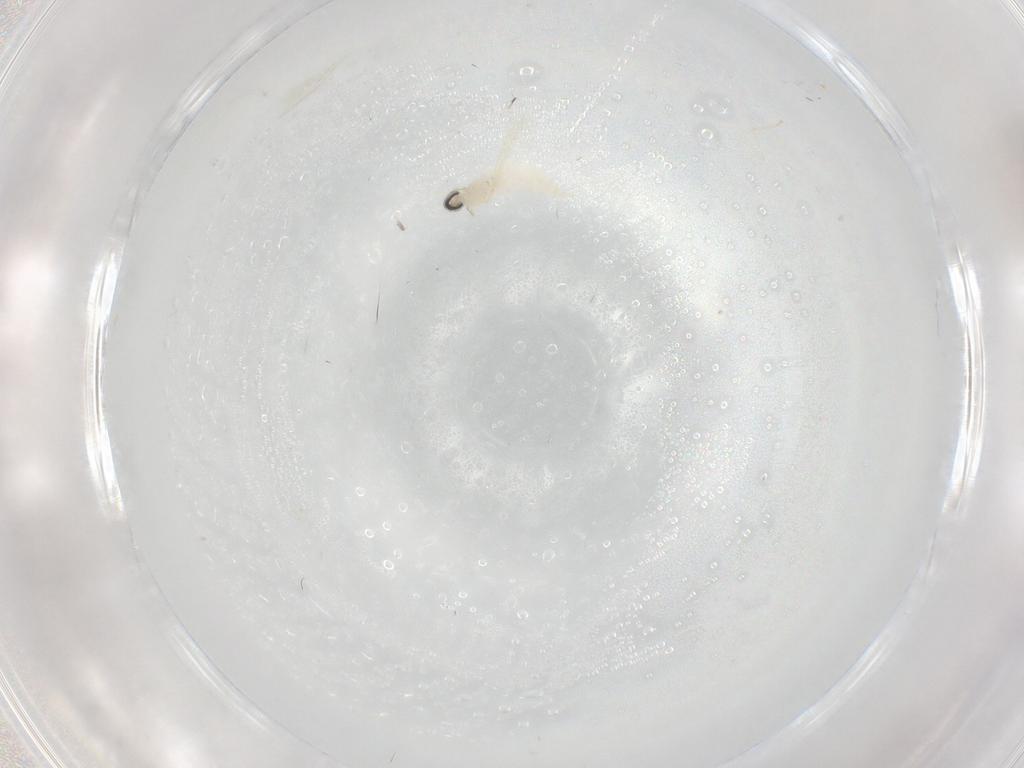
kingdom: Animalia
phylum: Arthropoda
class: Insecta
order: Diptera
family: Cecidomyiidae
